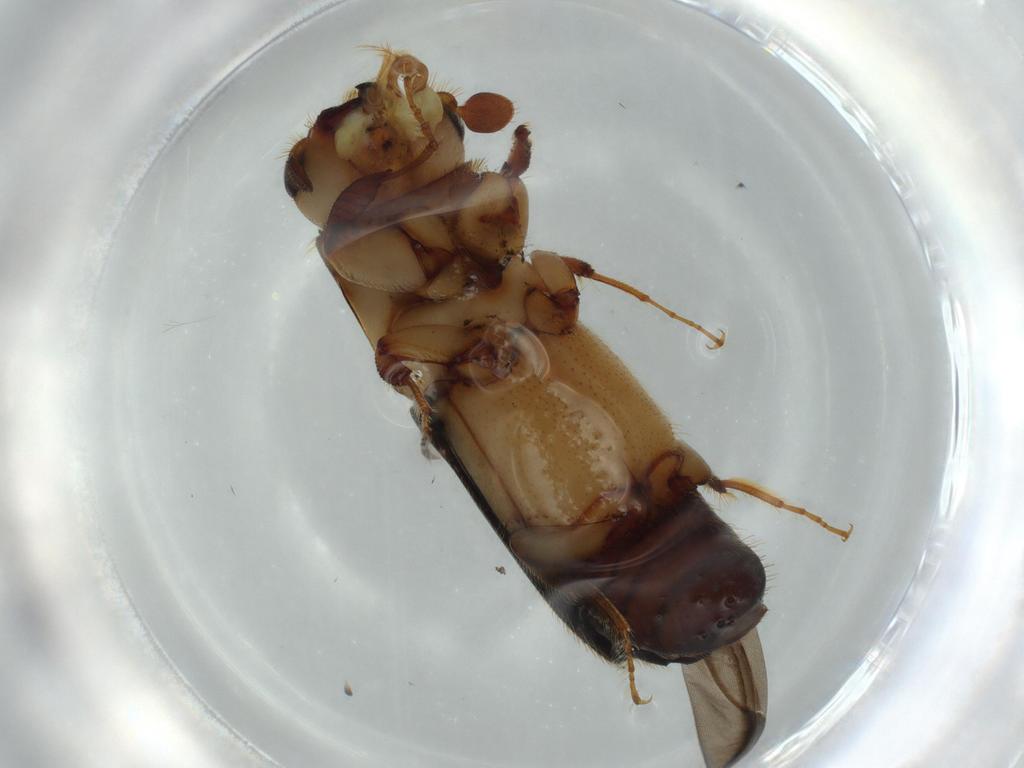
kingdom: Animalia
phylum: Arthropoda
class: Insecta
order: Coleoptera
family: Curculionidae
